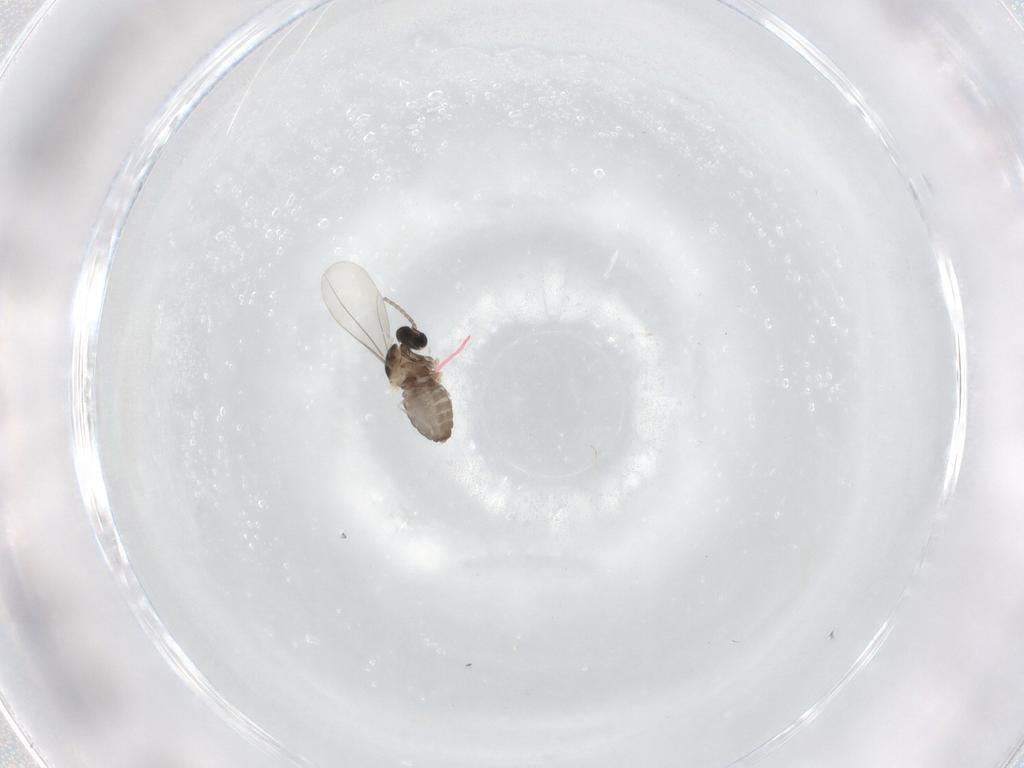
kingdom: Animalia
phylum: Arthropoda
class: Insecta
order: Diptera
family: Cecidomyiidae
